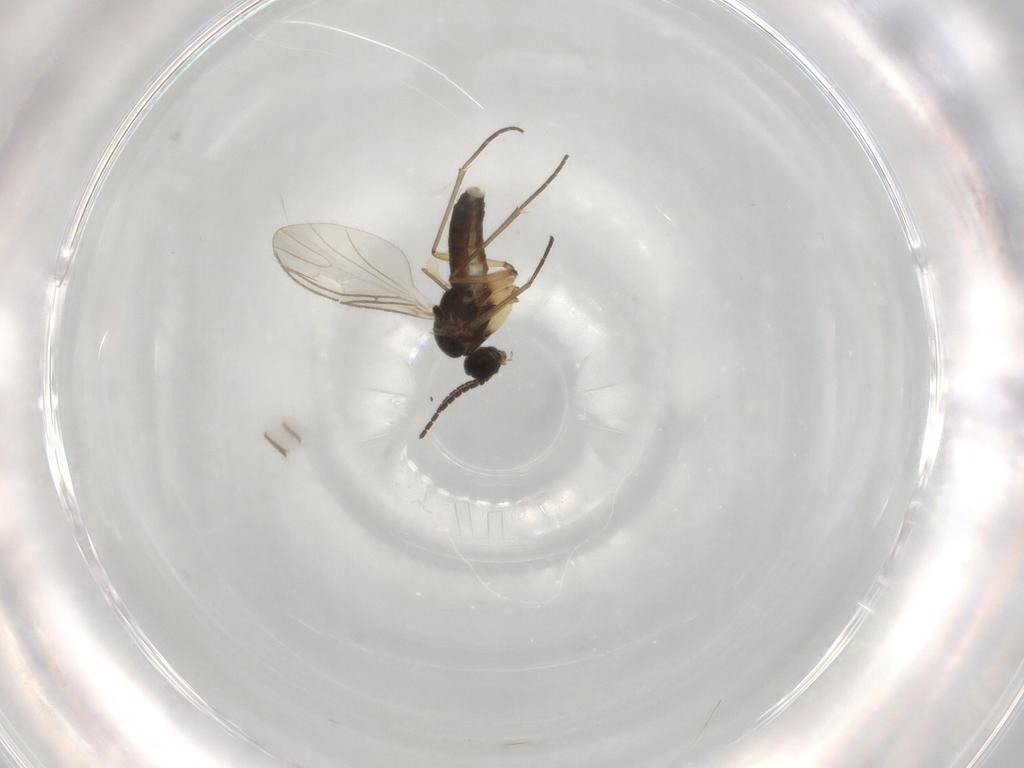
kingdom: Animalia
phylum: Arthropoda
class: Insecta
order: Diptera
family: Sciaridae
